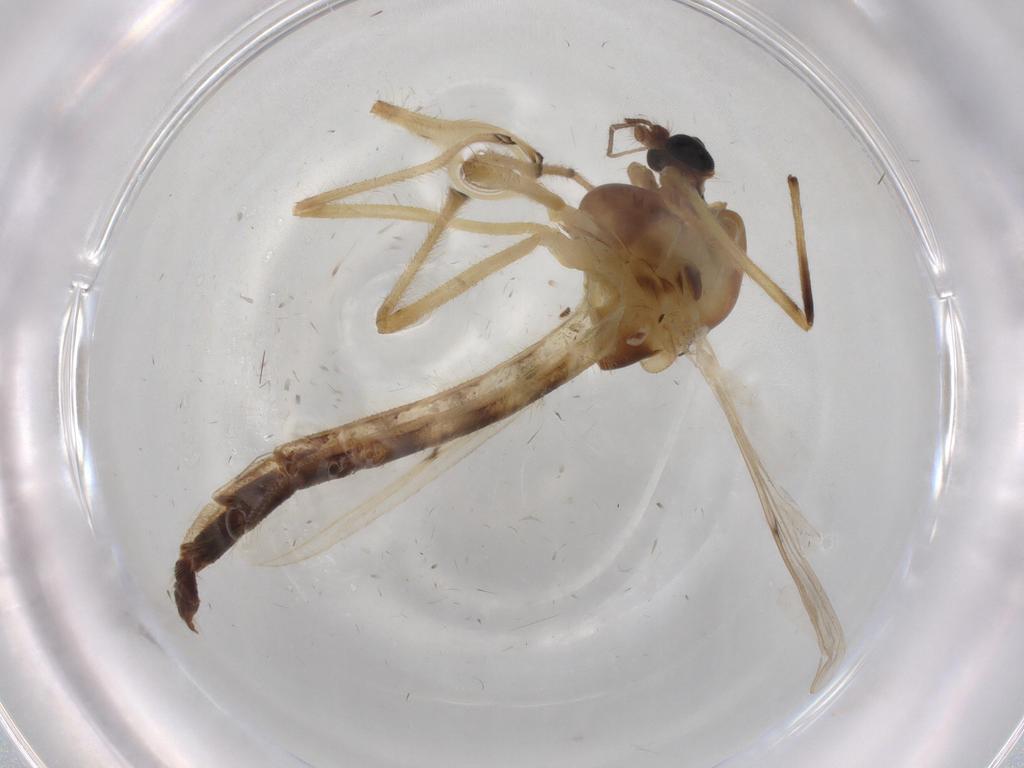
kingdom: Animalia
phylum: Arthropoda
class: Insecta
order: Diptera
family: Chironomidae
